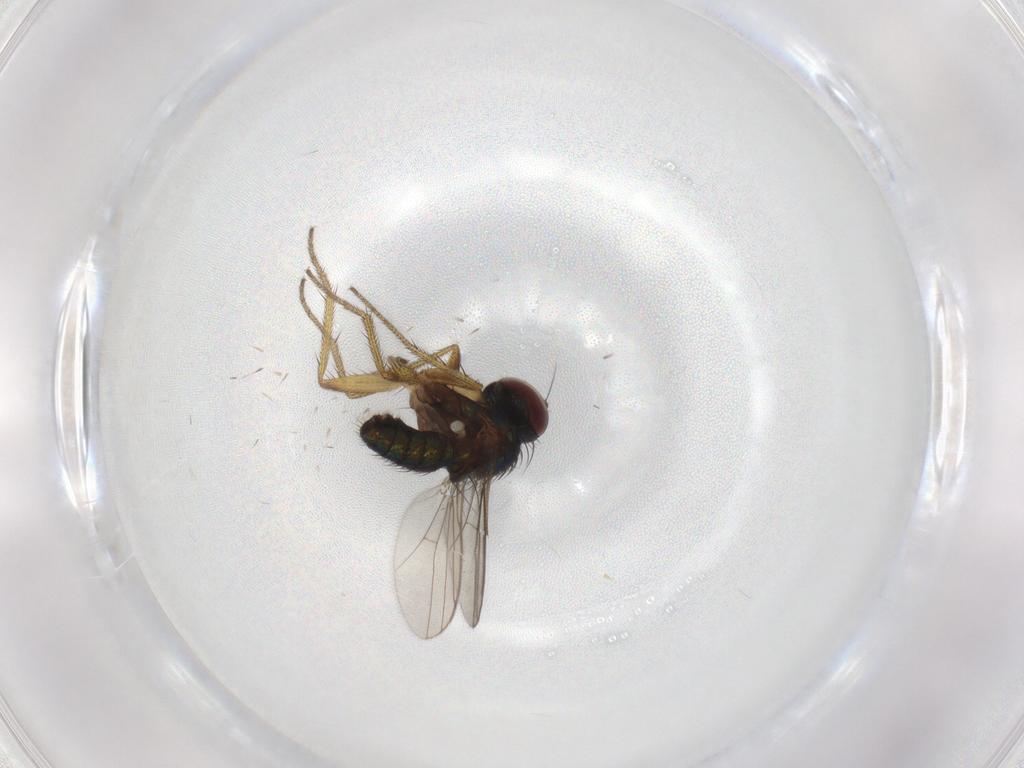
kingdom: Animalia
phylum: Arthropoda
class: Insecta
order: Diptera
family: Dolichopodidae
